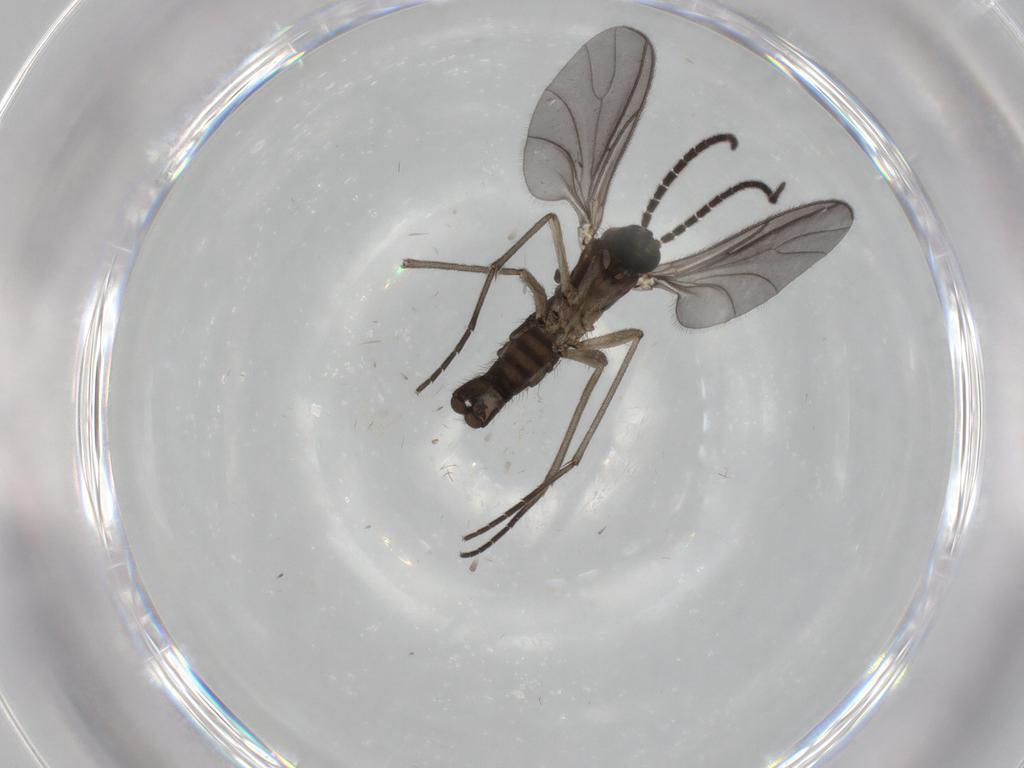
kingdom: Animalia
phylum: Arthropoda
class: Insecta
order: Diptera
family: Sciaridae
